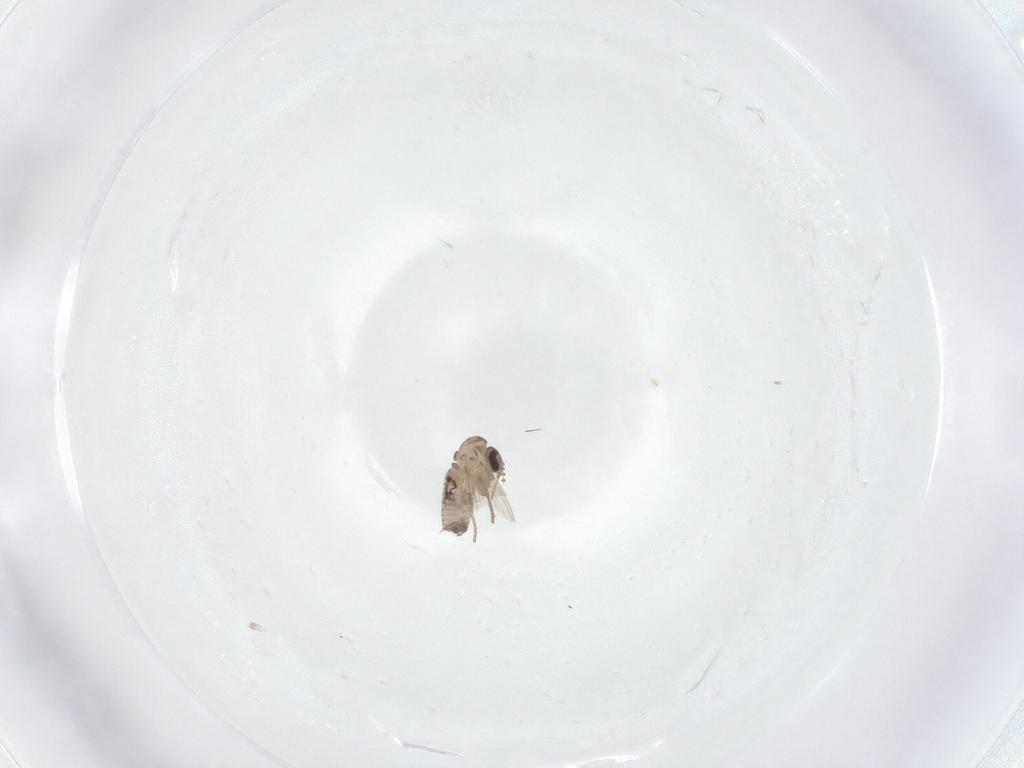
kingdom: Animalia
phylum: Arthropoda
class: Insecta
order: Diptera
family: Psychodidae
